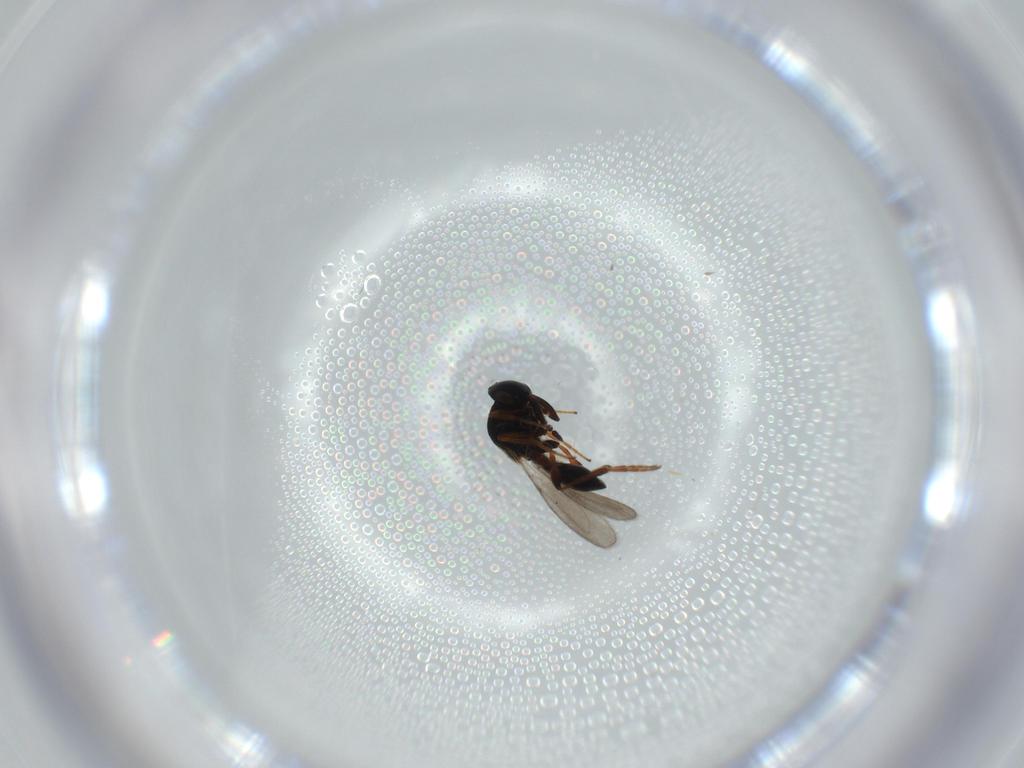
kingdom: Animalia
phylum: Arthropoda
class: Insecta
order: Hymenoptera
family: Platygastridae
